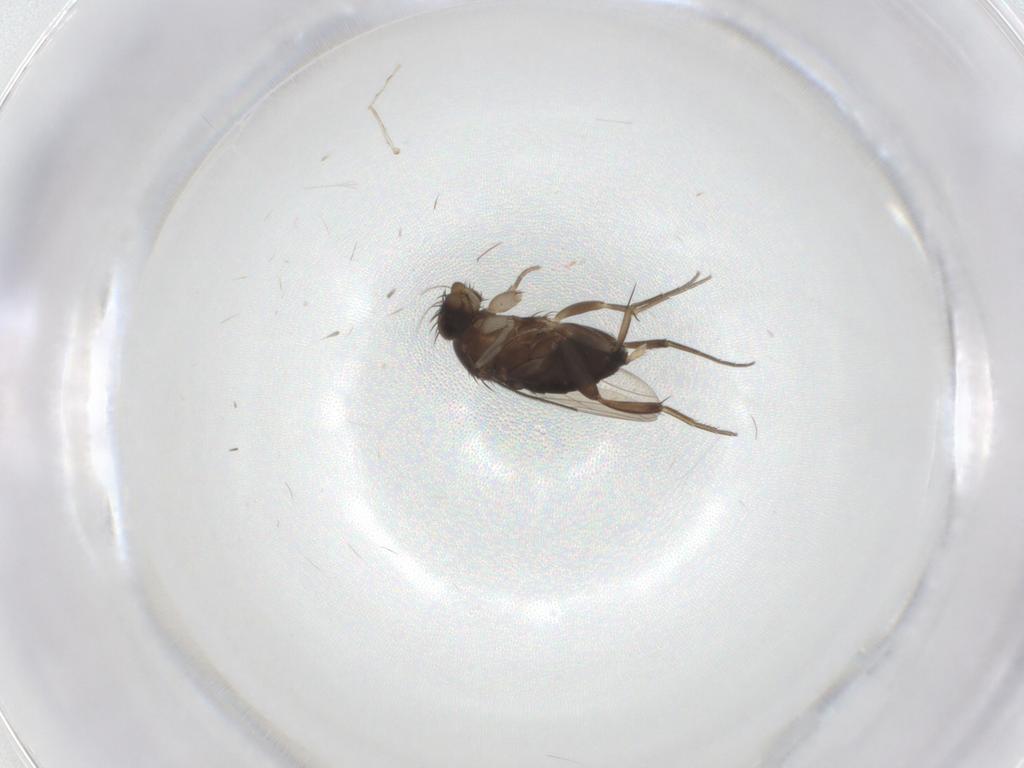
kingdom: Animalia
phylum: Arthropoda
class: Insecta
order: Diptera
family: Phoridae
